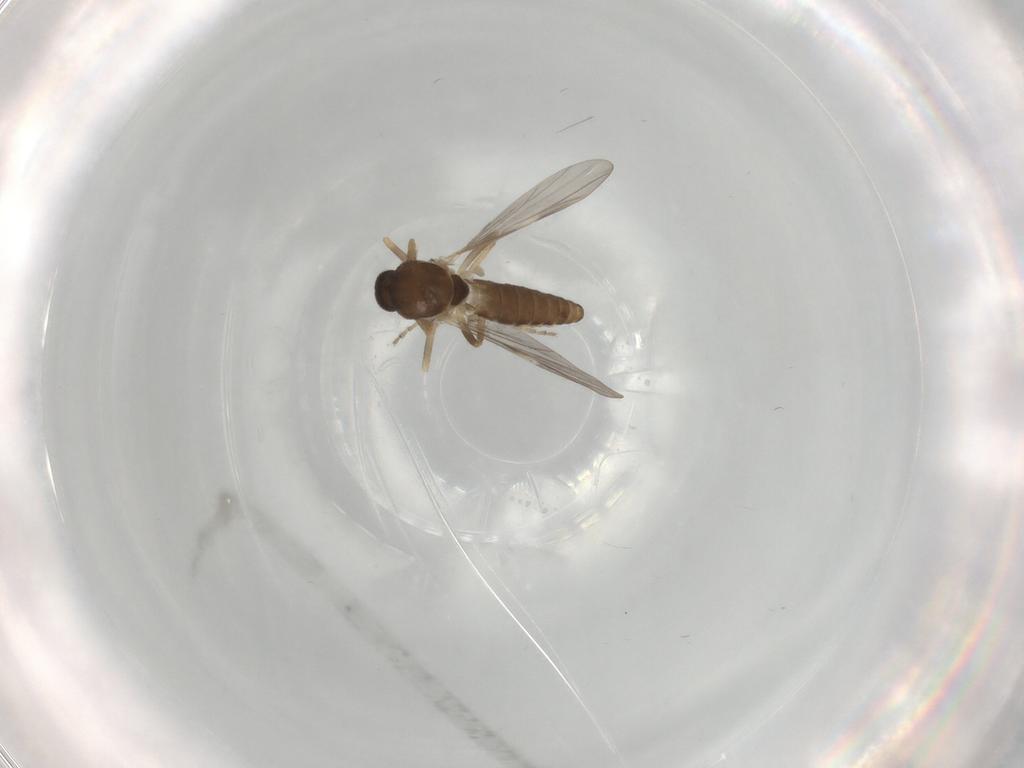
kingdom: Animalia
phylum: Arthropoda
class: Insecta
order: Diptera
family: Ceratopogonidae
